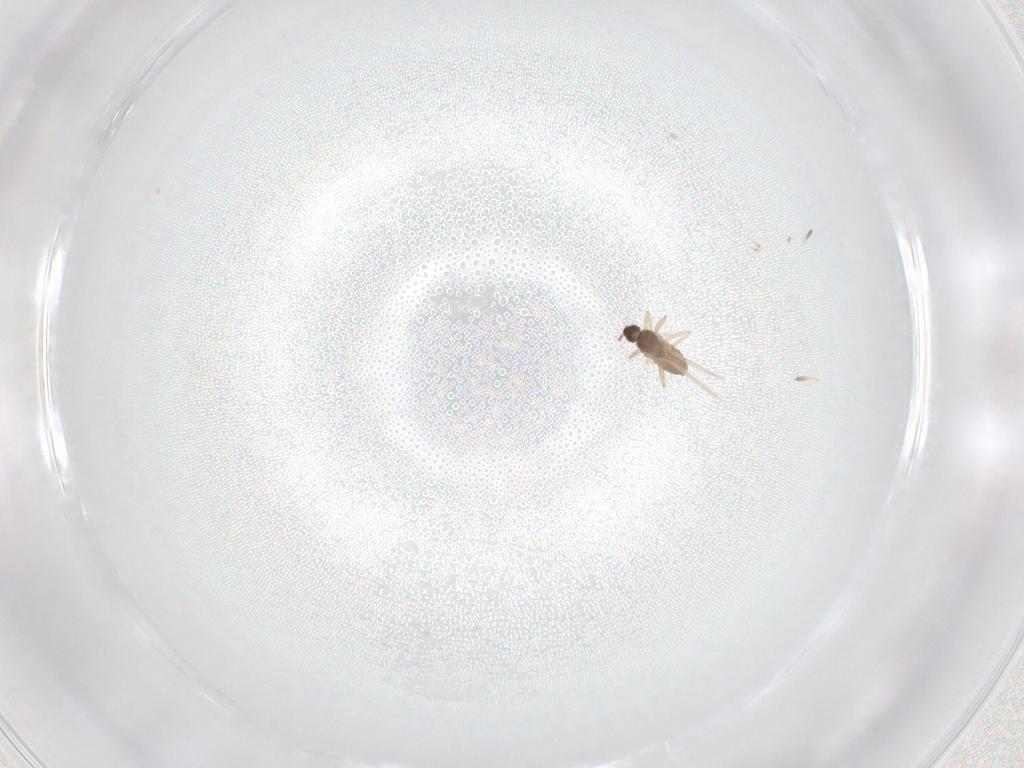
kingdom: Animalia
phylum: Arthropoda
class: Insecta
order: Diptera
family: Cecidomyiidae
